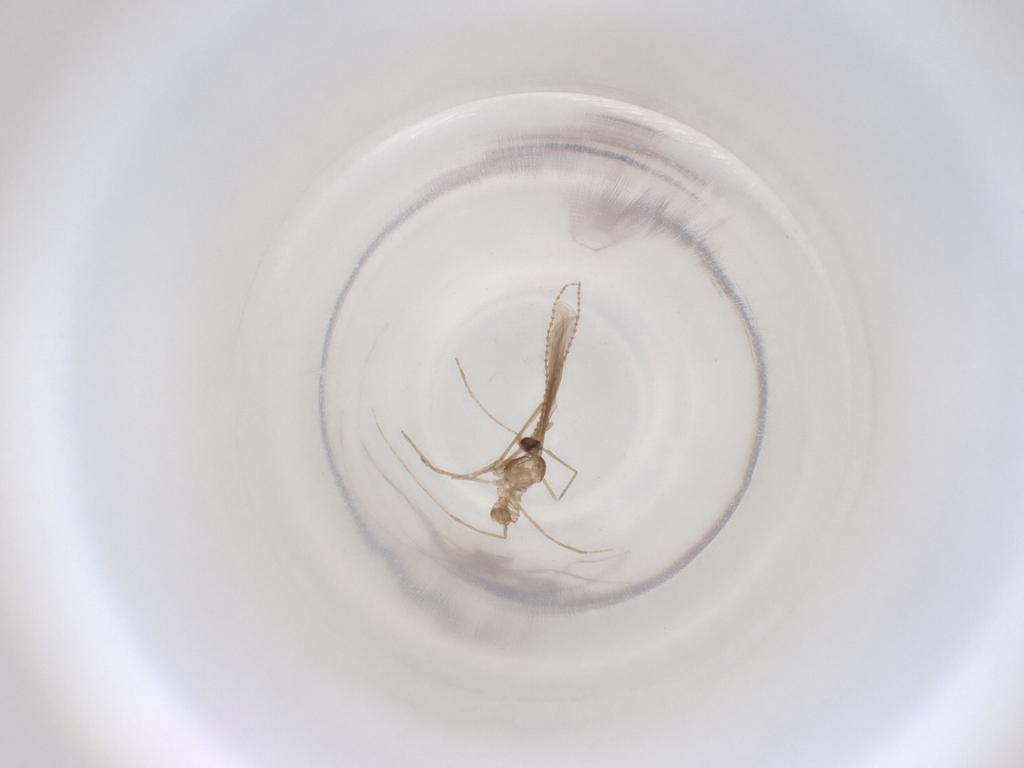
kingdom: Animalia
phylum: Arthropoda
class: Insecta
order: Diptera
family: Cecidomyiidae
